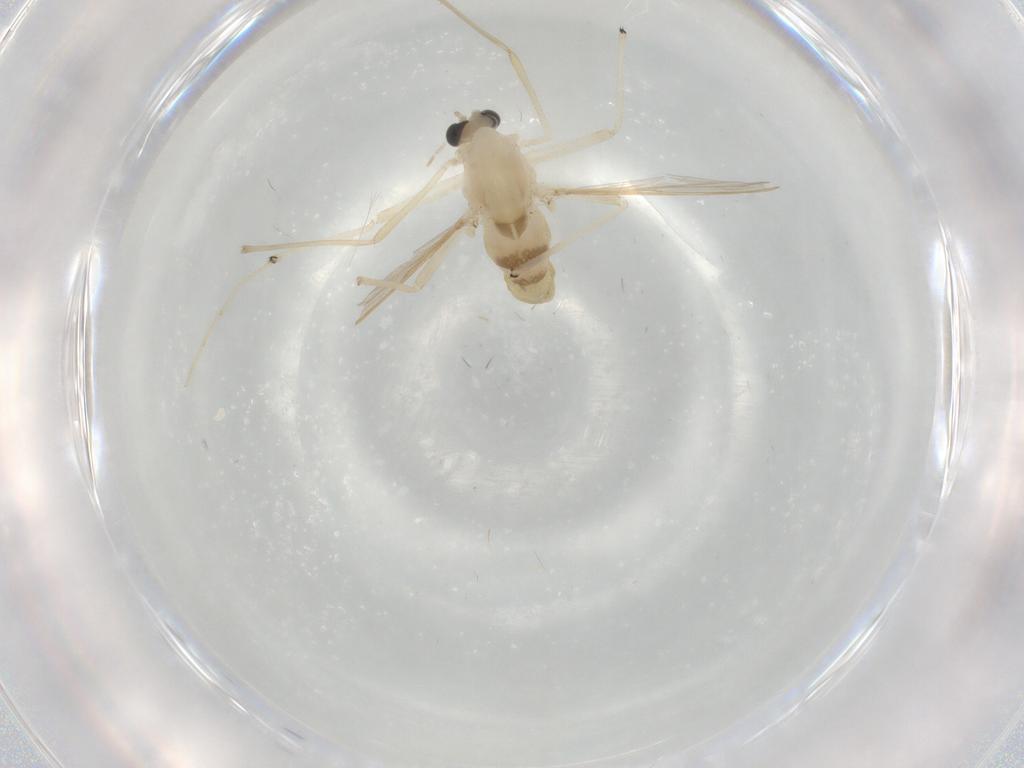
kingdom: Animalia
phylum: Arthropoda
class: Insecta
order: Diptera
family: Chironomidae
